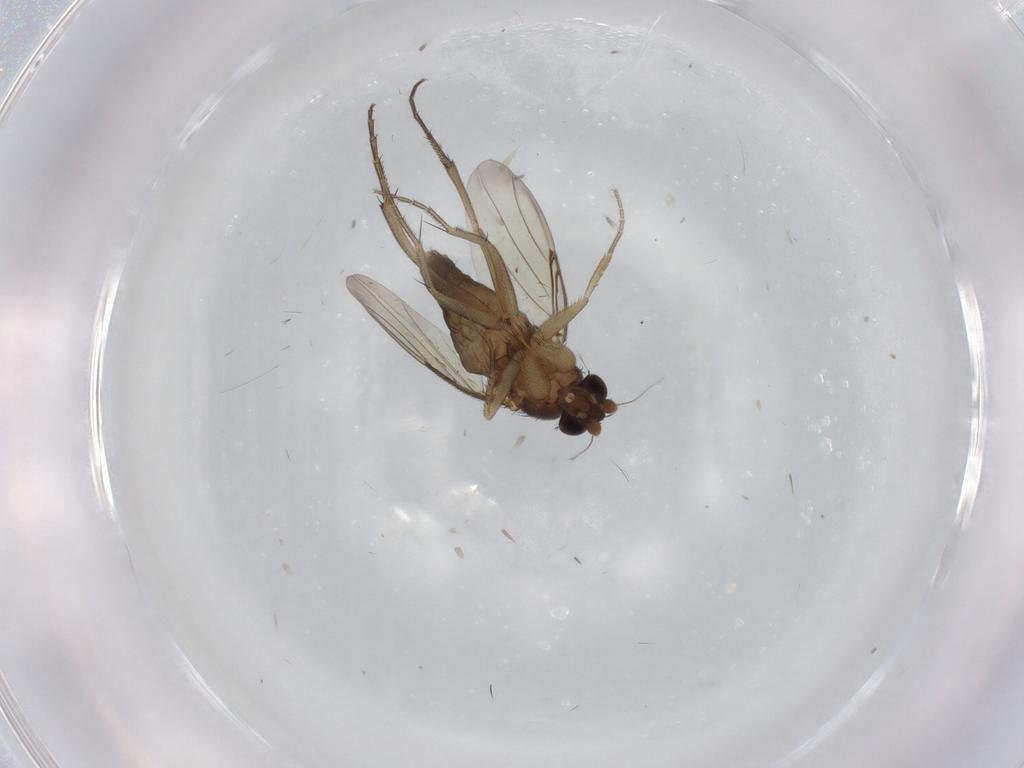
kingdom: Animalia
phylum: Arthropoda
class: Insecta
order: Diptera
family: Phoridae
